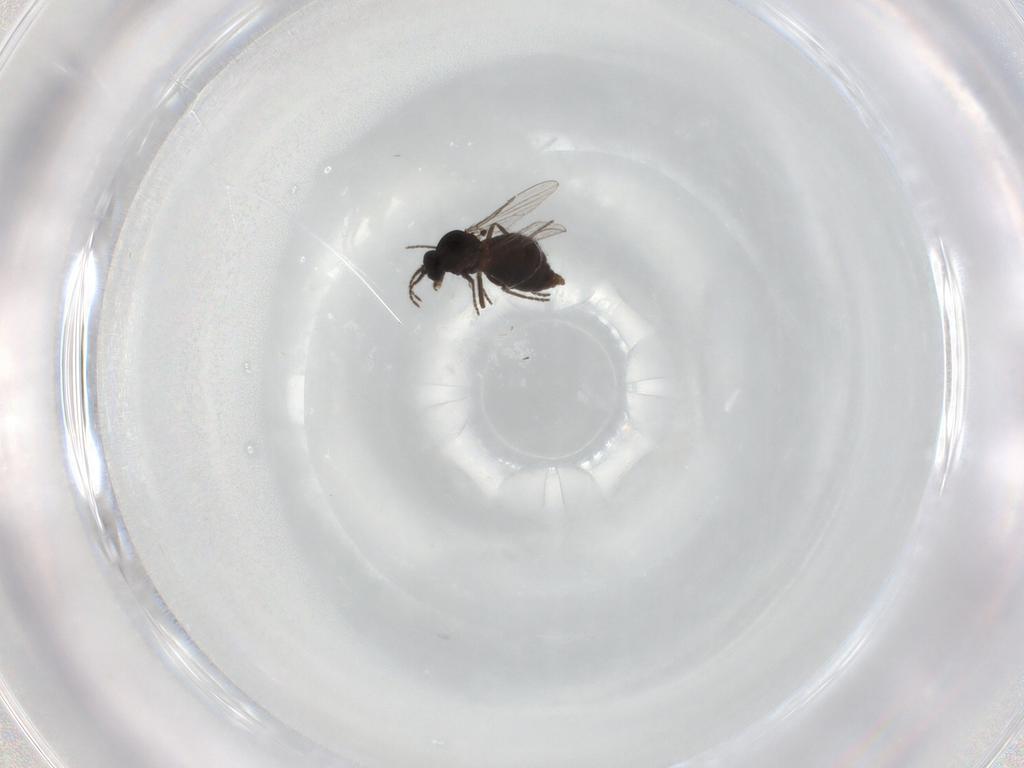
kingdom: Animalia
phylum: Arthropoda
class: Insecta
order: Diptera
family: Ceratopogonidae
